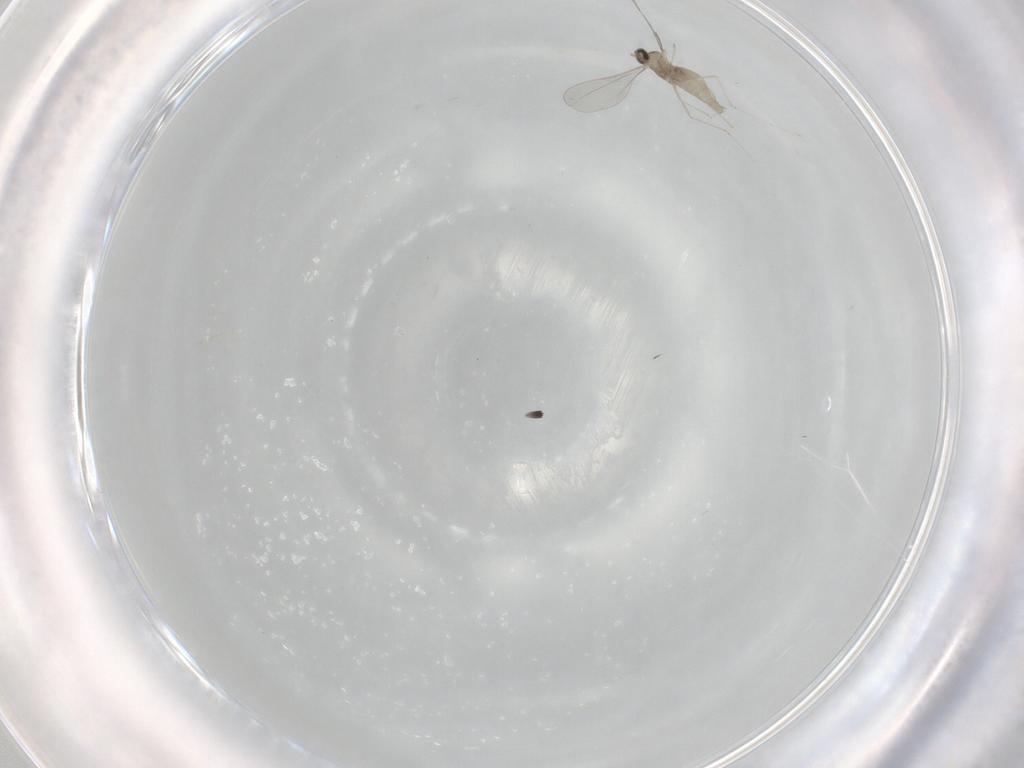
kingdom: Animalia
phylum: Arthropoda
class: Insecta
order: Diptera
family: Cecidomyiidae
